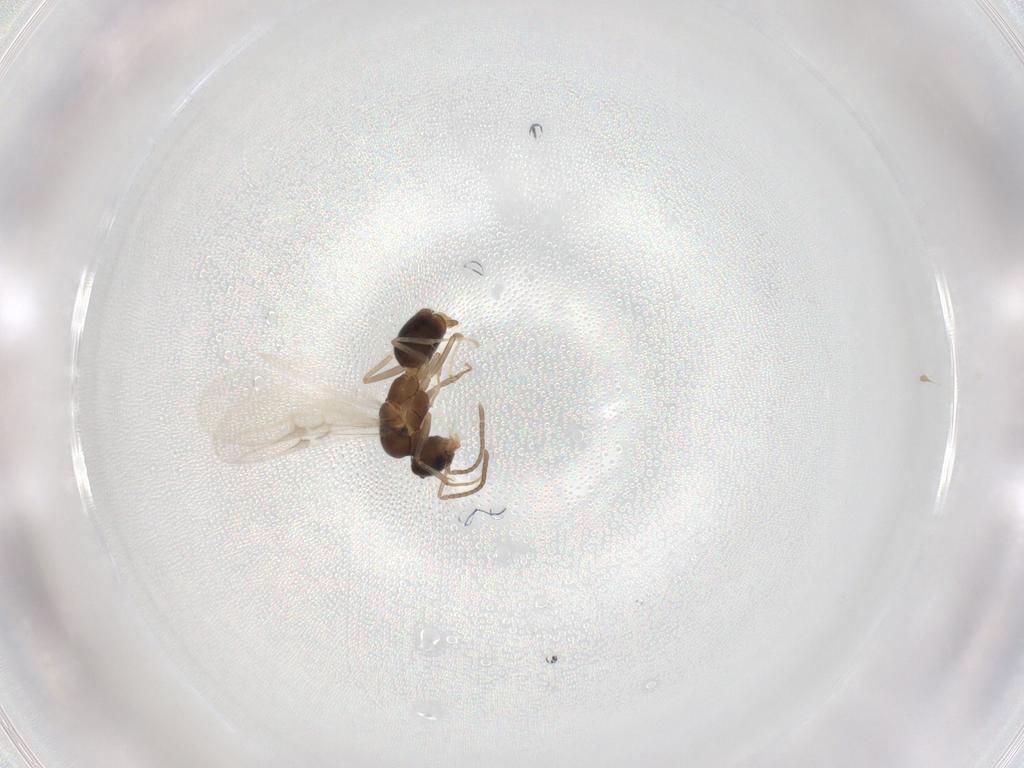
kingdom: Animalia
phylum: Arthropoda
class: Insecta
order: Hymenoptera
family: Formicidae
